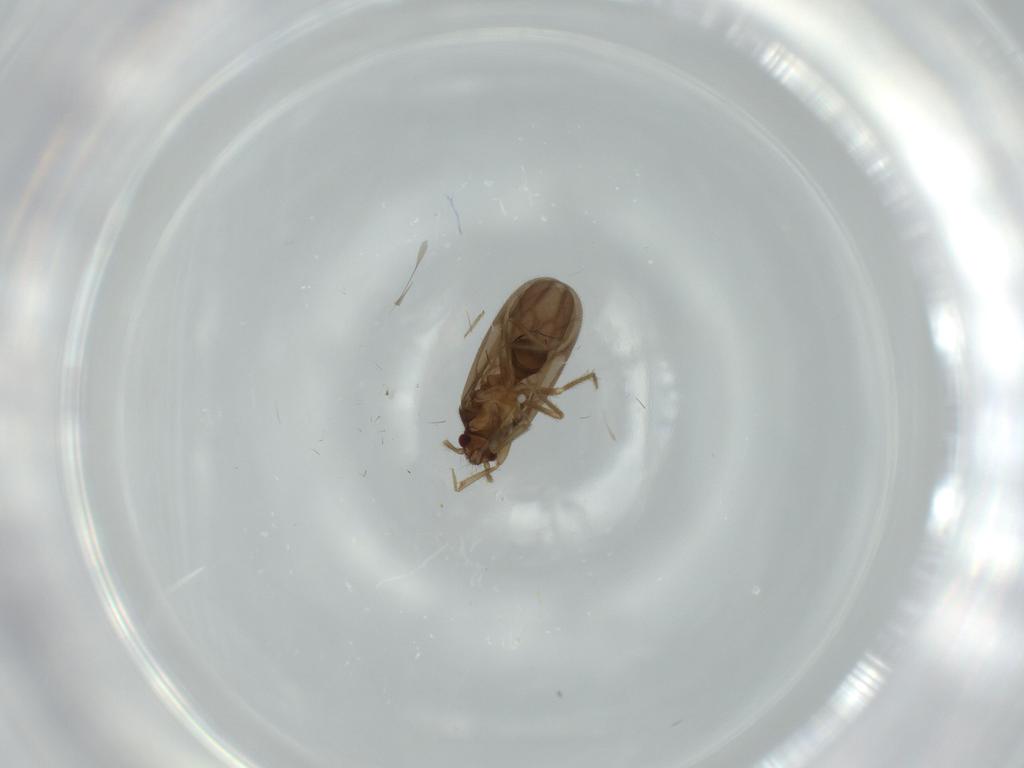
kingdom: Animalia
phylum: Arthropoda
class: Insecta
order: Hemiptera
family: Ceratocombidae
